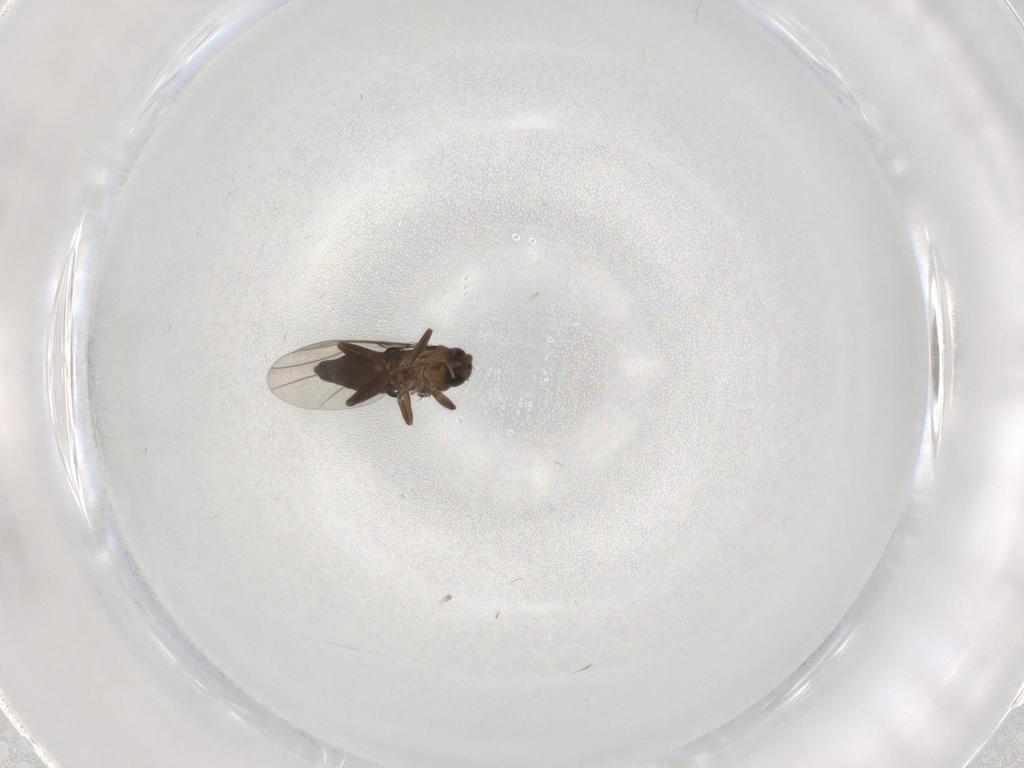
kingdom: Animalia
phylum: Arthropoda
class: Insecta
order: Diptera
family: Phoridae
